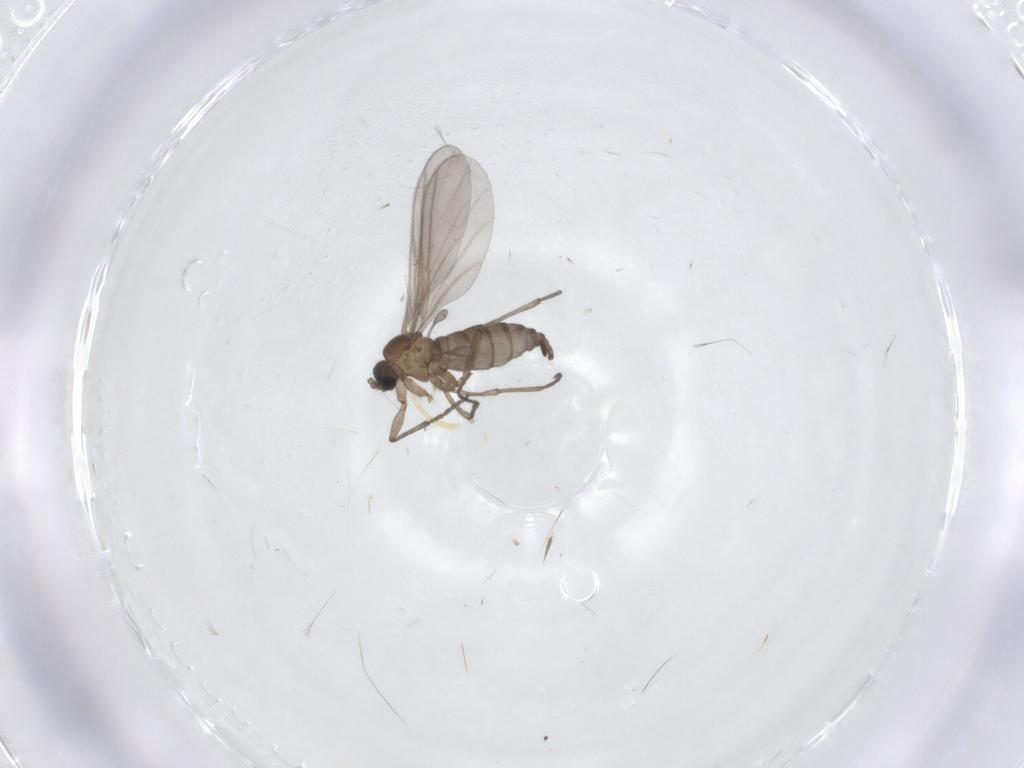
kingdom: Animalia
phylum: Arthropoda
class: Insecta
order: Diptera
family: Sciaridae
